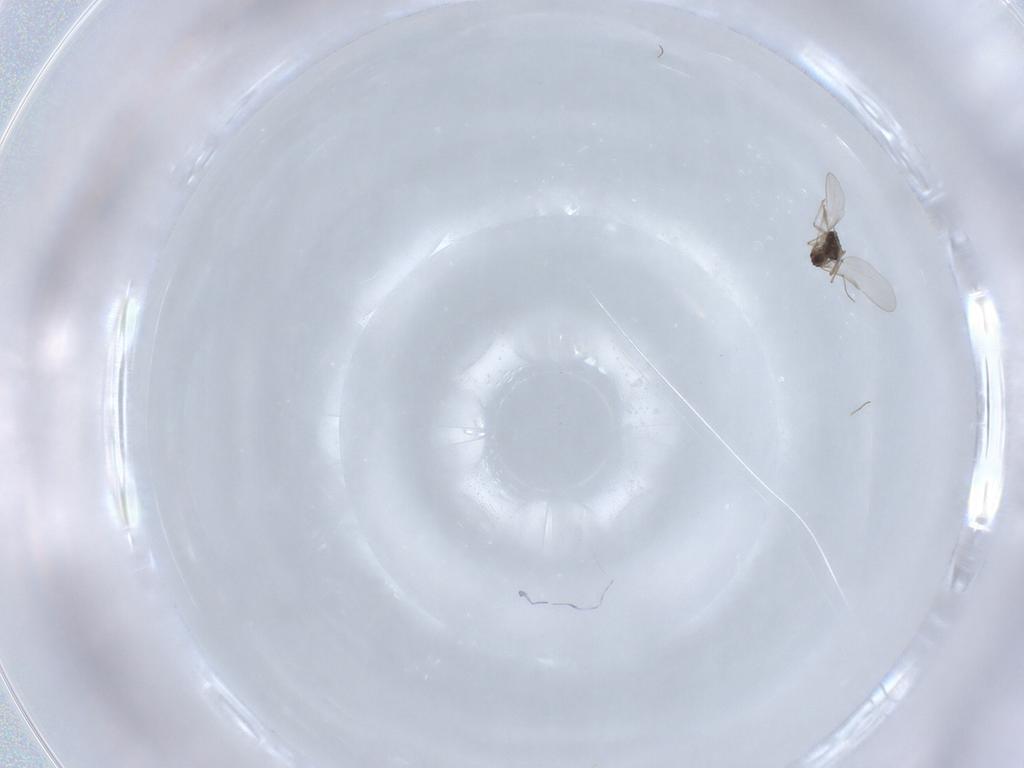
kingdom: Animalia
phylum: Arthropoda
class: Insecta
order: Diptera
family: Chironomidae
